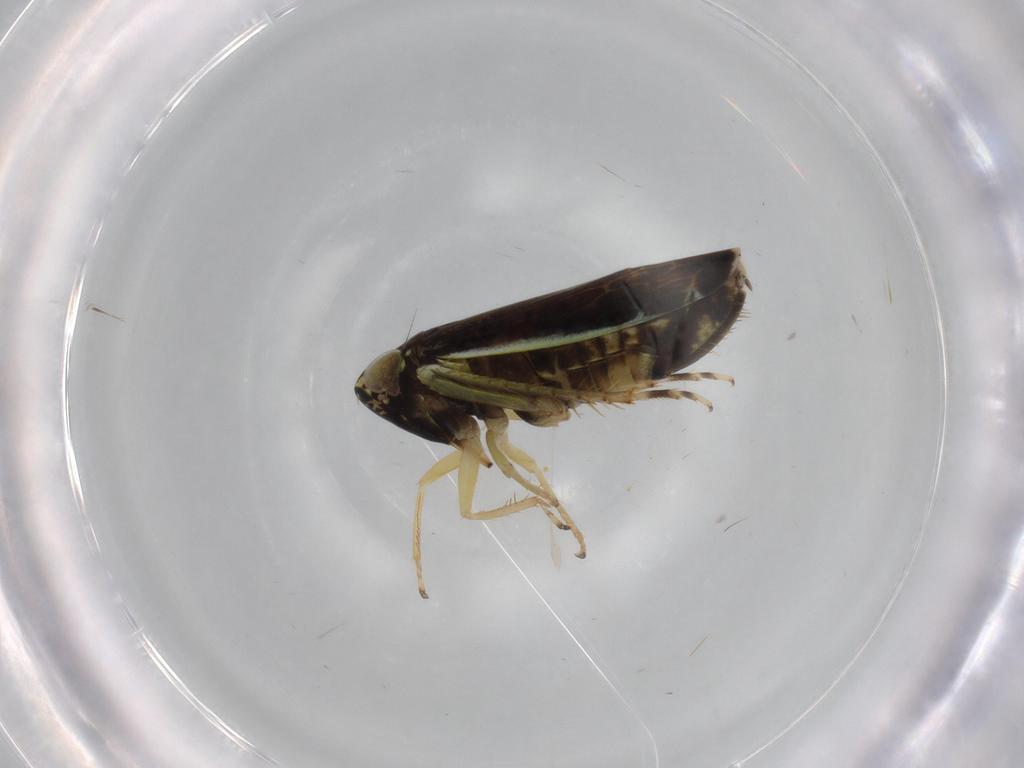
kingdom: Animalia
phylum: Arthropoda
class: Insecta
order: Hemiptera
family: Cicadellidae
